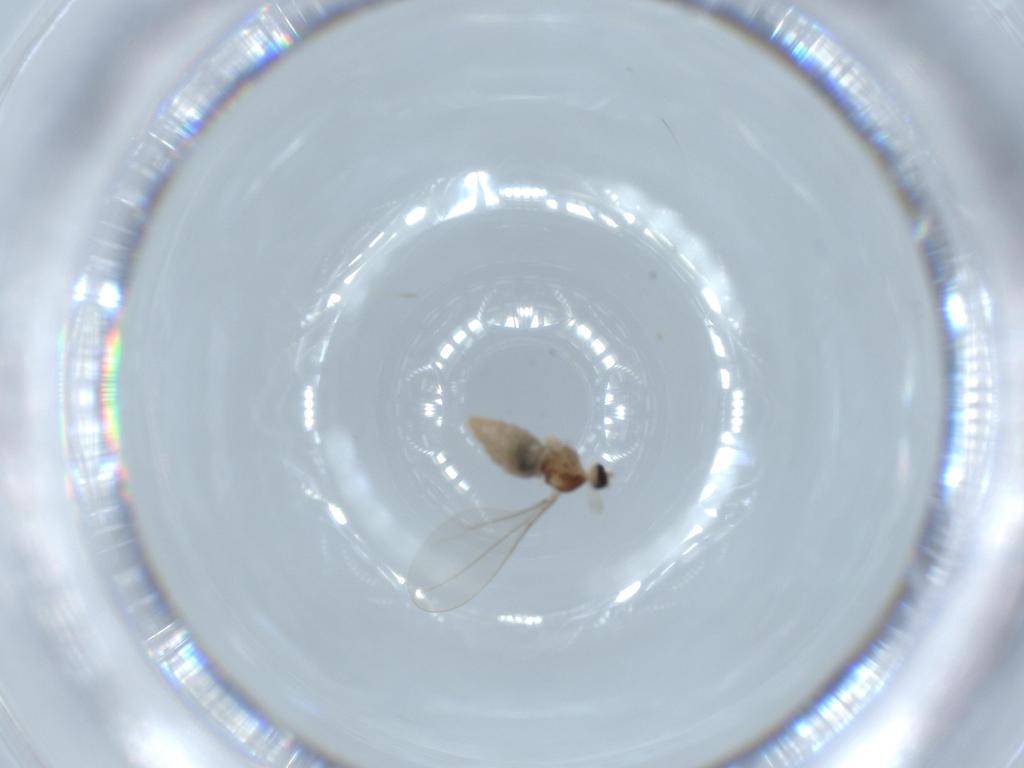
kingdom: Animalia
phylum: Arthropoda
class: Insecta
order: Diptera
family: Cecidomyiidae
